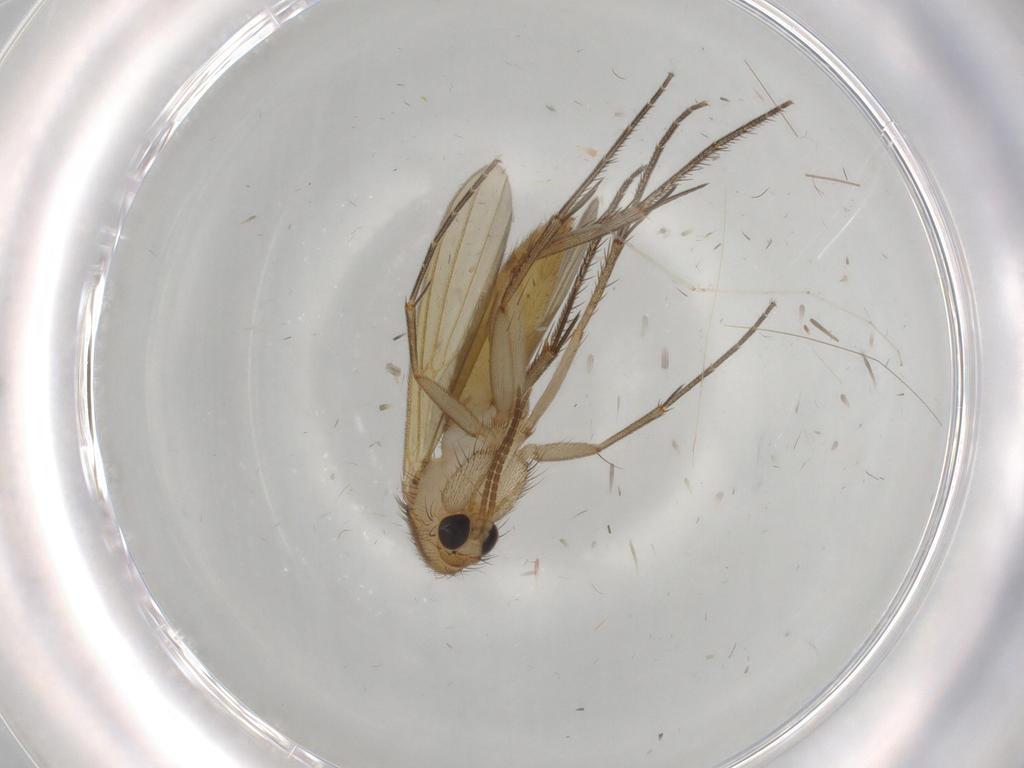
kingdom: Animalia
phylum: Arthropoda
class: Insecta
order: Diptera
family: Mycetophilidae
